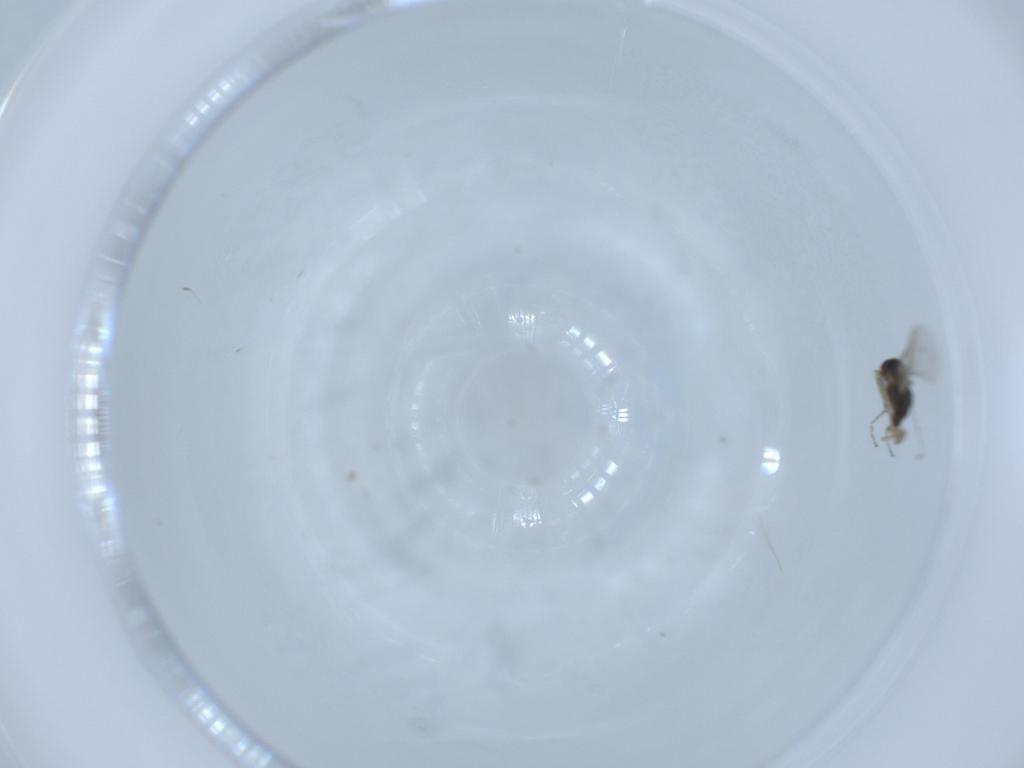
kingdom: Animalia
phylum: Arthropoda
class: Insecta
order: Diptera
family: Cecidomyiidae
